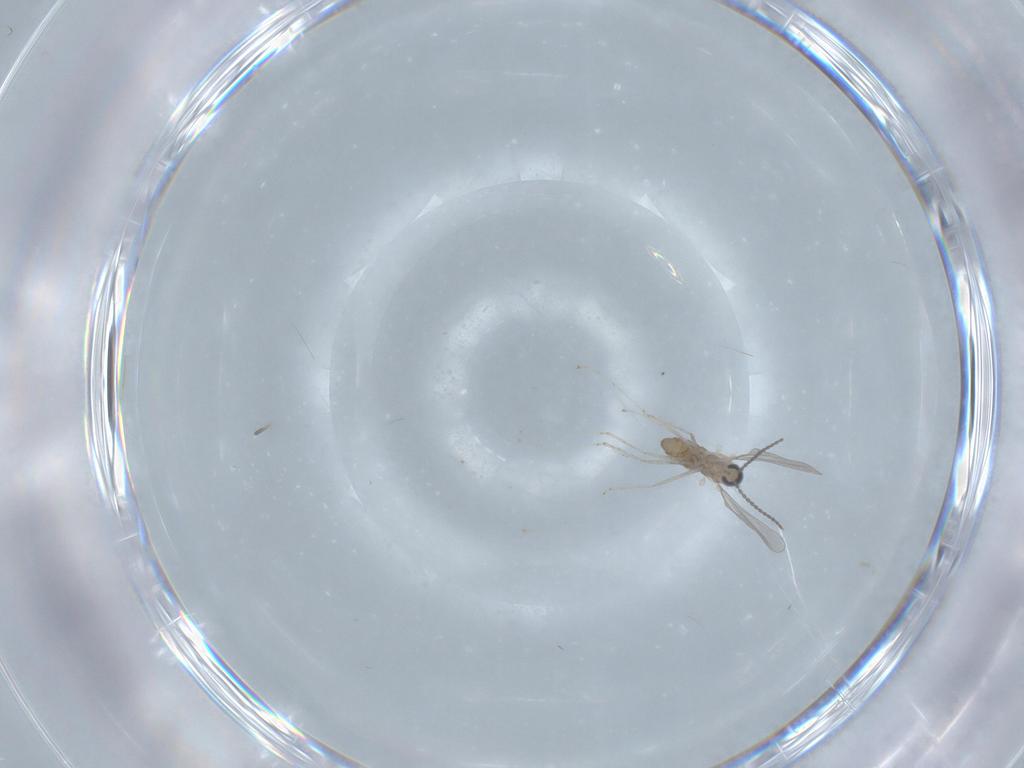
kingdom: Animalia
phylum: Arthropoda
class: Insecta
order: Diptera
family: Cecidomyiidae
